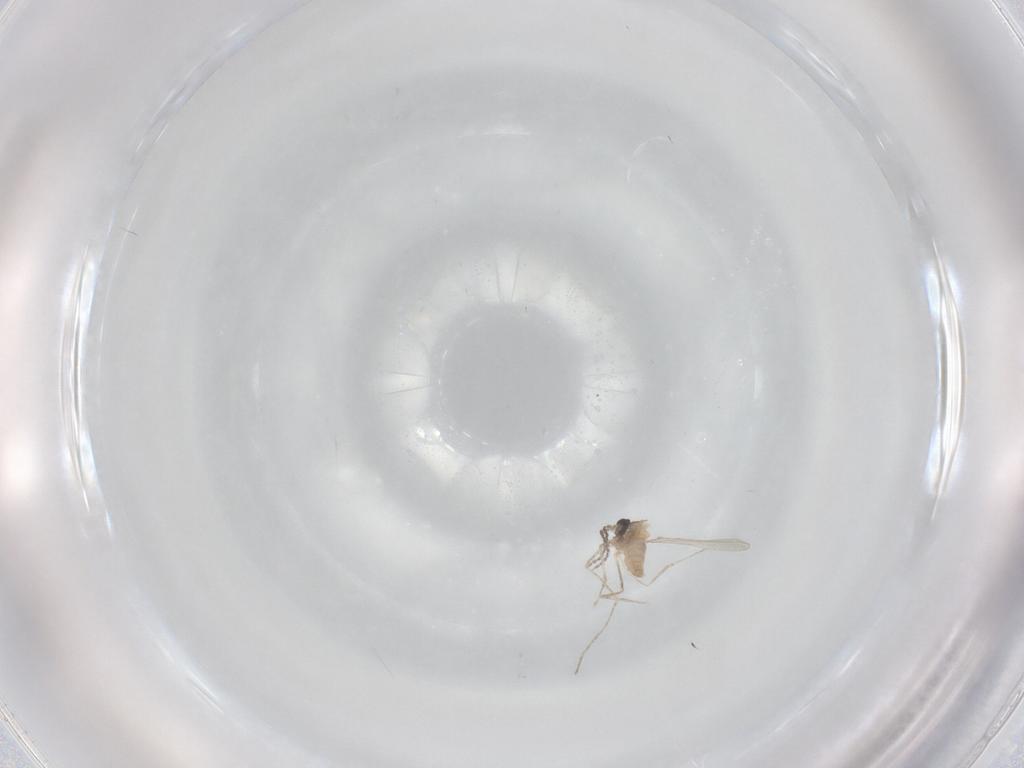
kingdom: Animalia
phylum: Arthropoda
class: Insecta
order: Diptera
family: Cecidomyiidae
